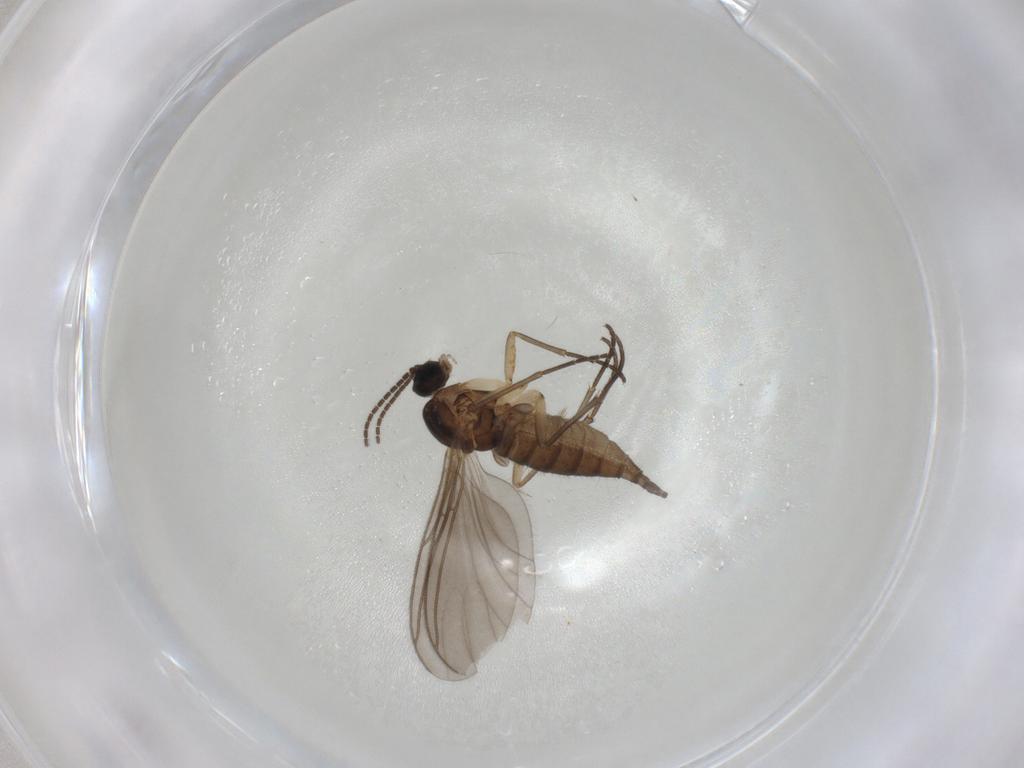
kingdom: Animalia
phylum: Arthropoda
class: Insecta
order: Diptera
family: Sciaridae
